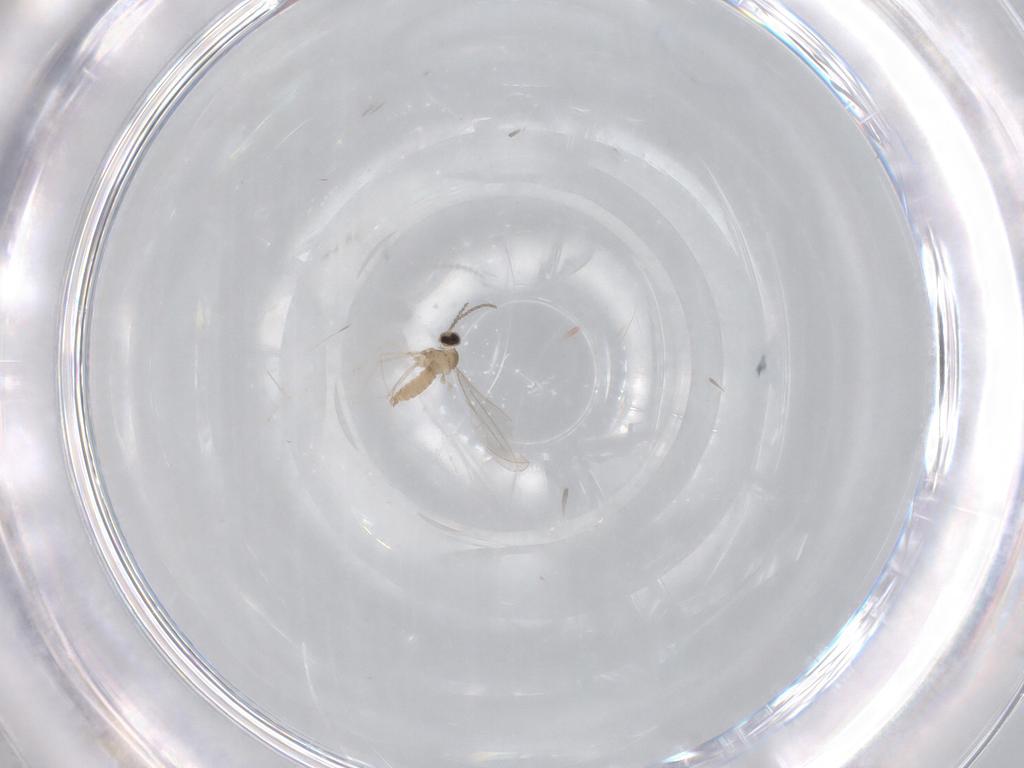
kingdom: Animalia
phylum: Arthropoda
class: Insecta
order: Diptera
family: Cecidomyiidae
